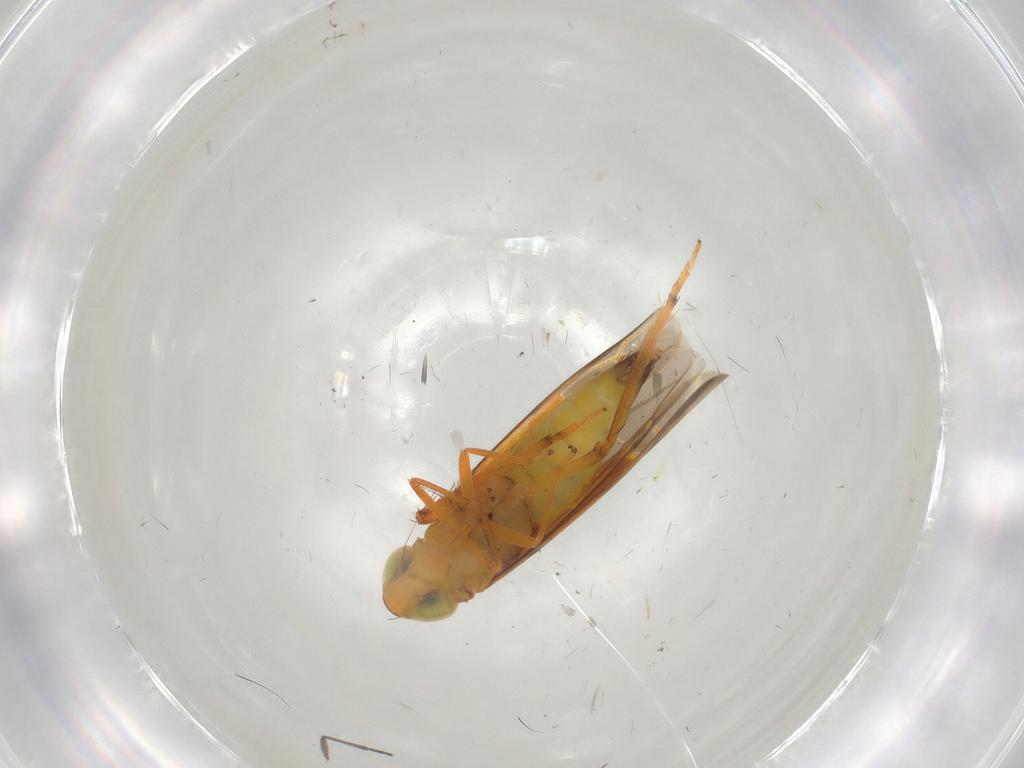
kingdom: Animalia
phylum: Arthropoda
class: Insecta
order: Hemiptera
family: Cicadellidae
